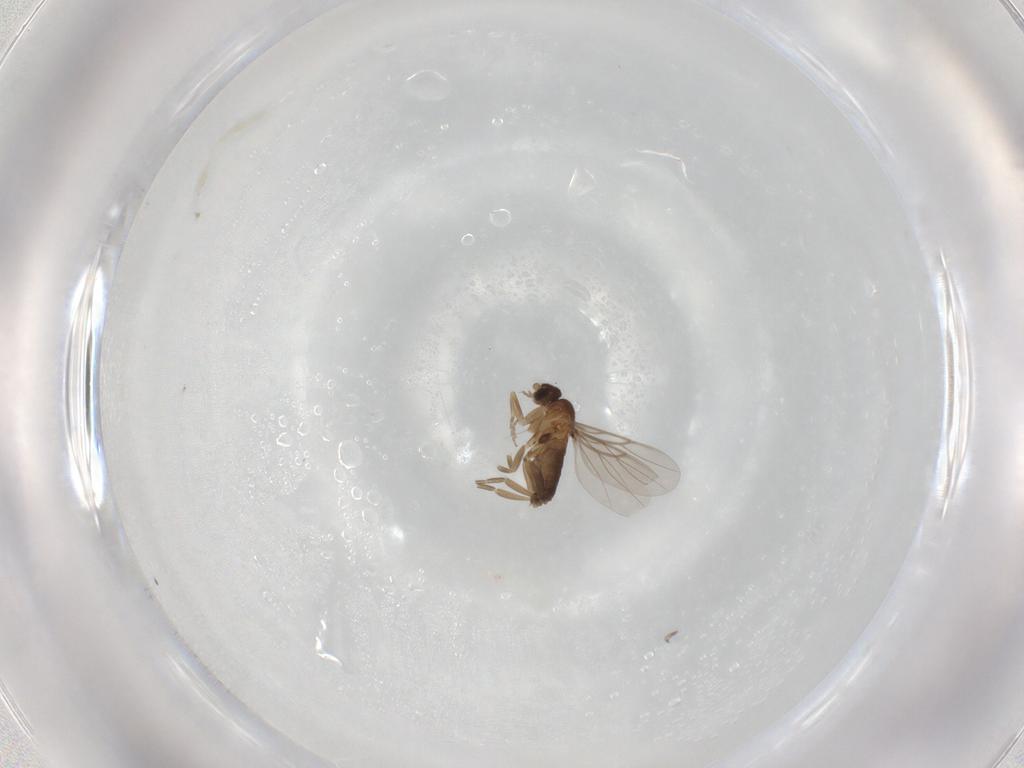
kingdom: Animalia
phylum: Arthropoda
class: Insecta
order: Diptera
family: Phoridae
